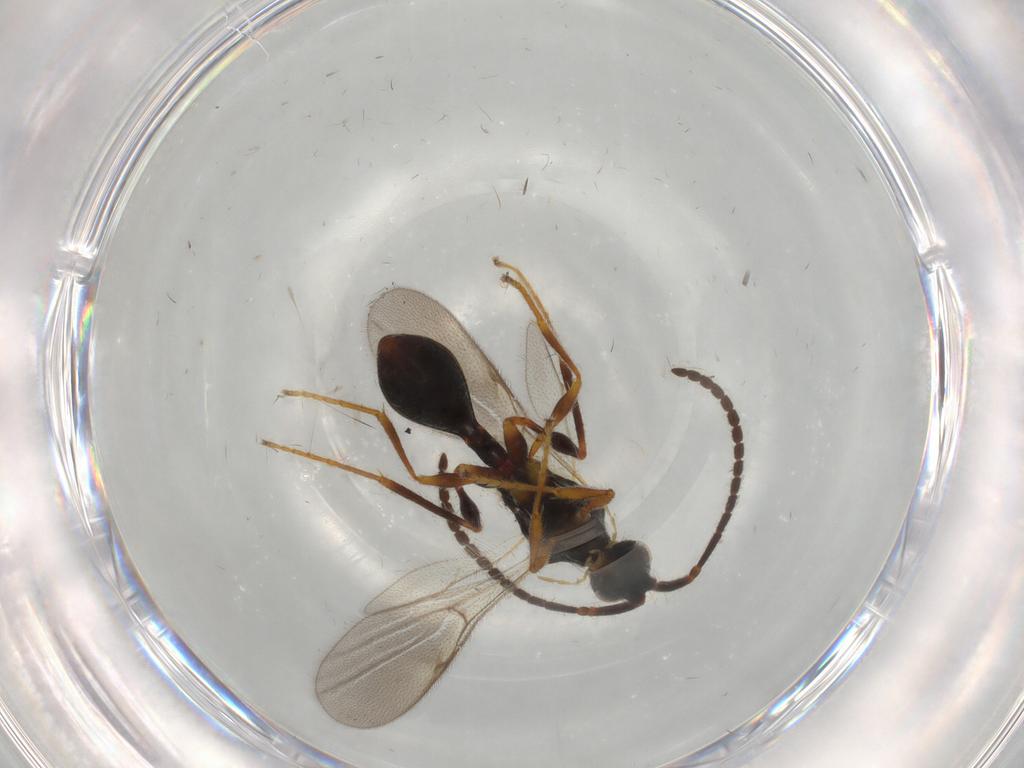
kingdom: Animalia
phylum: Arthropoda
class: Insecta
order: Hymenoptera
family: Diapriidae
